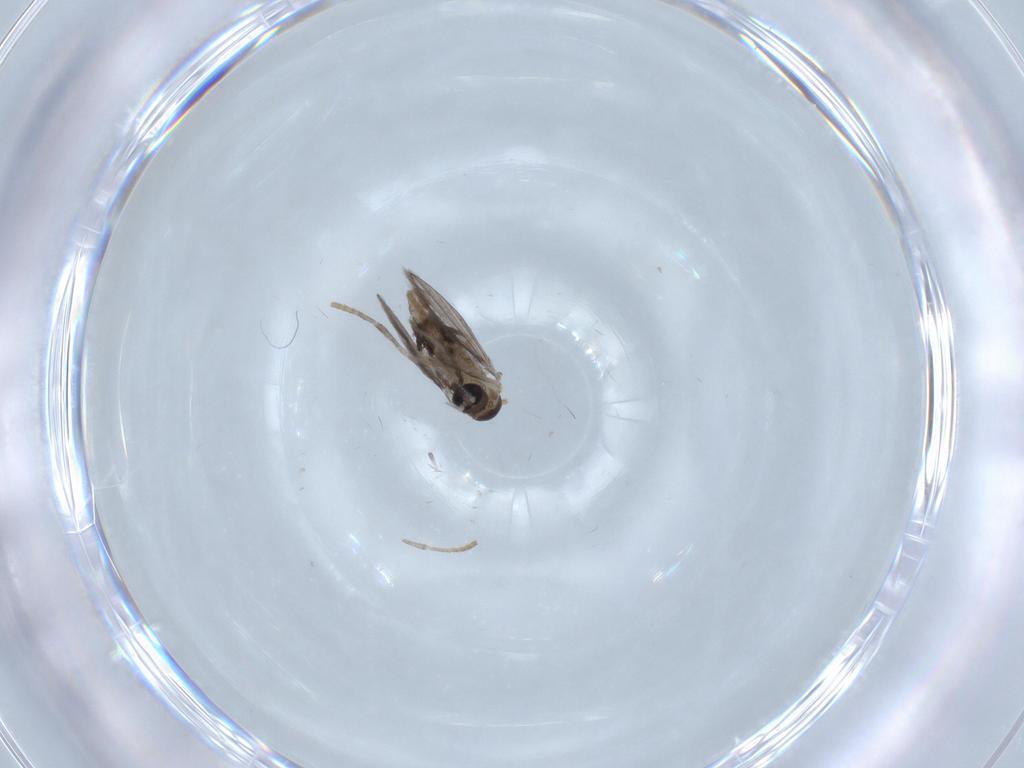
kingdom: Animalia
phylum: Arthropoda
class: Insecta
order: Diptera
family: Psychodidae
